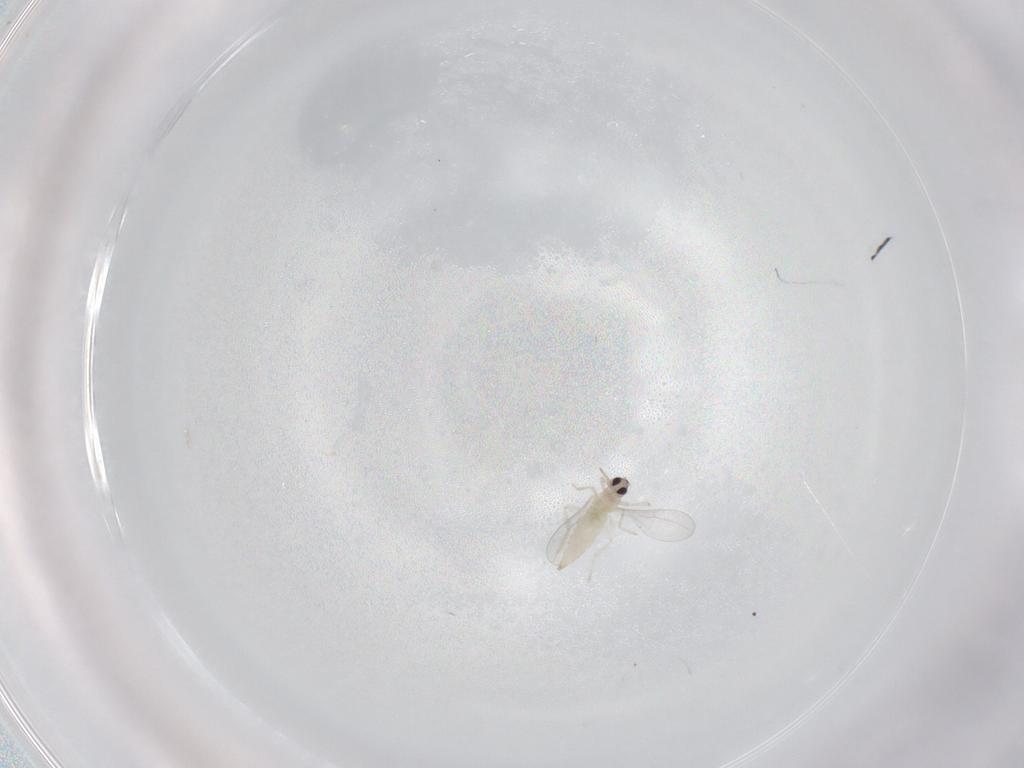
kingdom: Animalia
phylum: Arthropoda
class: Insecta
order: Diptera
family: Cecidomyiidae
